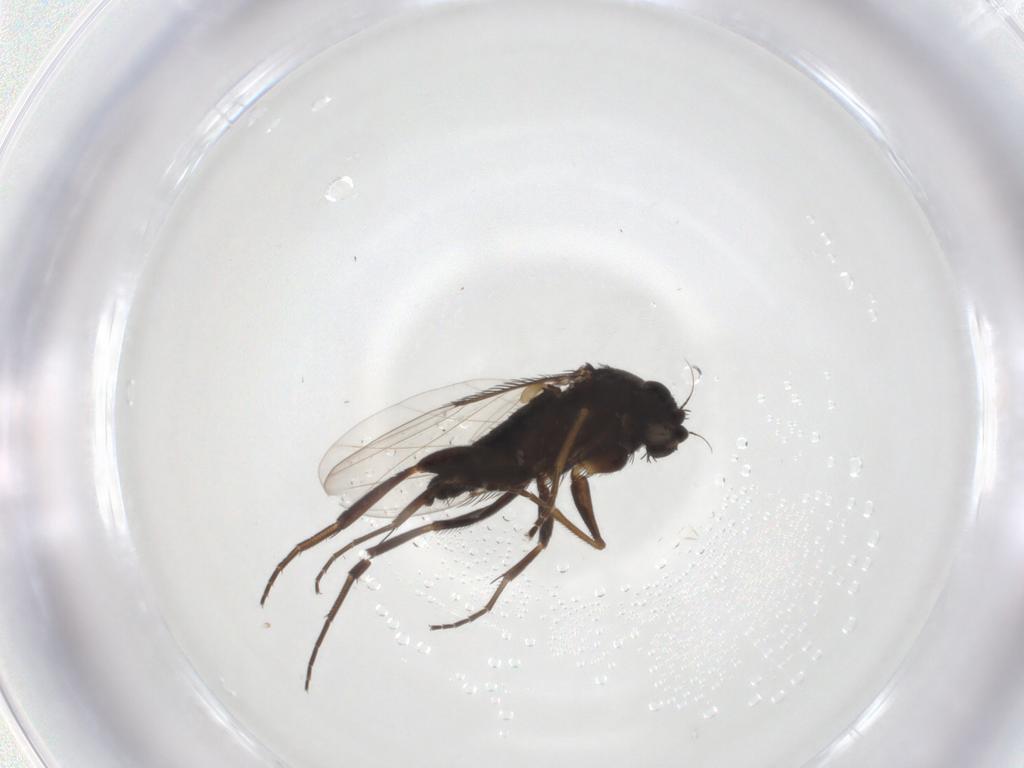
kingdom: Animalia
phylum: Arthropoda
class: Insecta
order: Diptera
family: Phoridae
